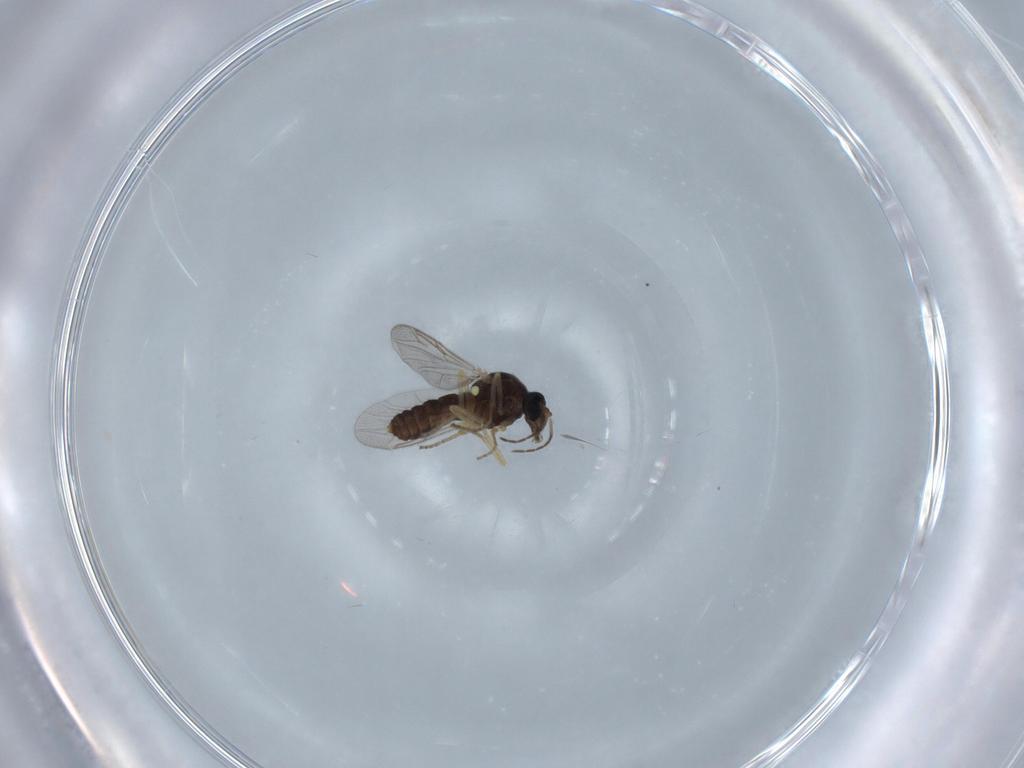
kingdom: Animalia
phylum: Arthropoda
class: Insecta
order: Diptera
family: Ceratopogonidae
